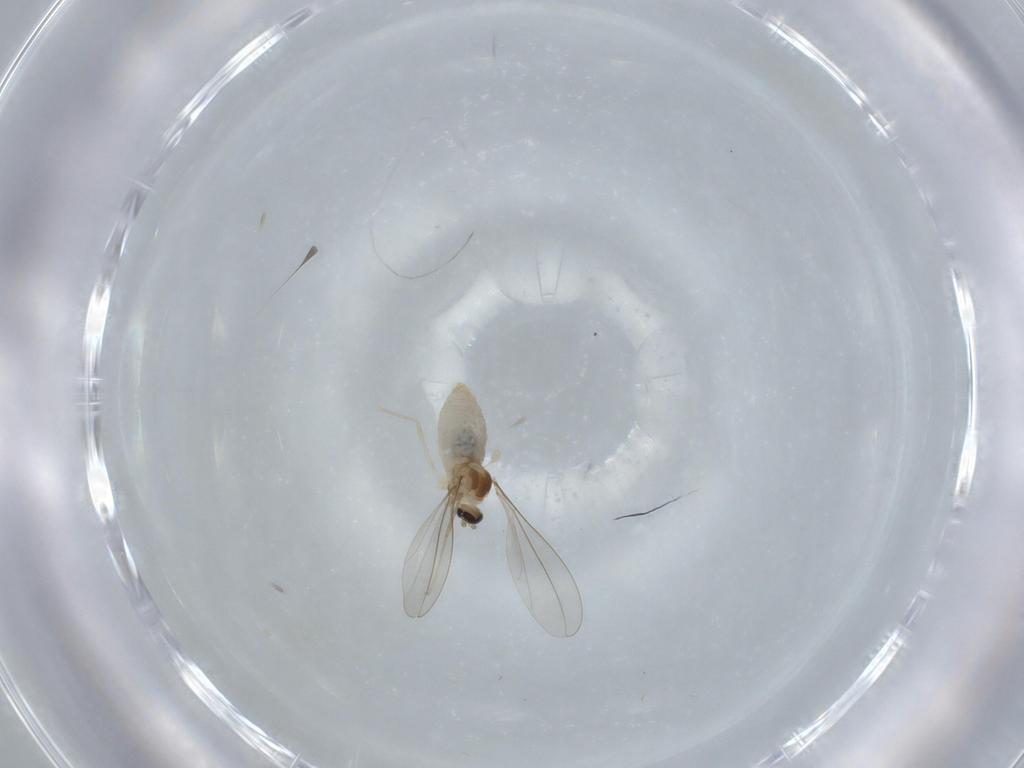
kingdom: Animalia
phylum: Arthropoda
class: Insecta
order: Diptera
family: Cecidomyiidae
